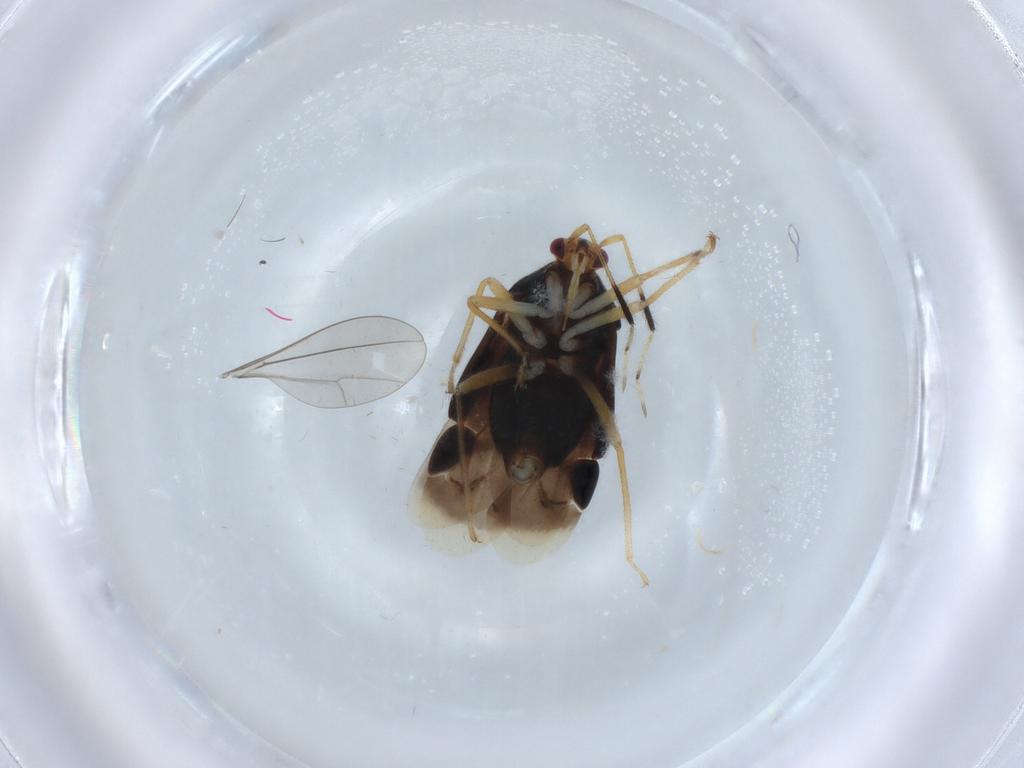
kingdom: Animalia
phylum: Arthropoda
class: Insecta
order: Hemiptera
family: Miridae
